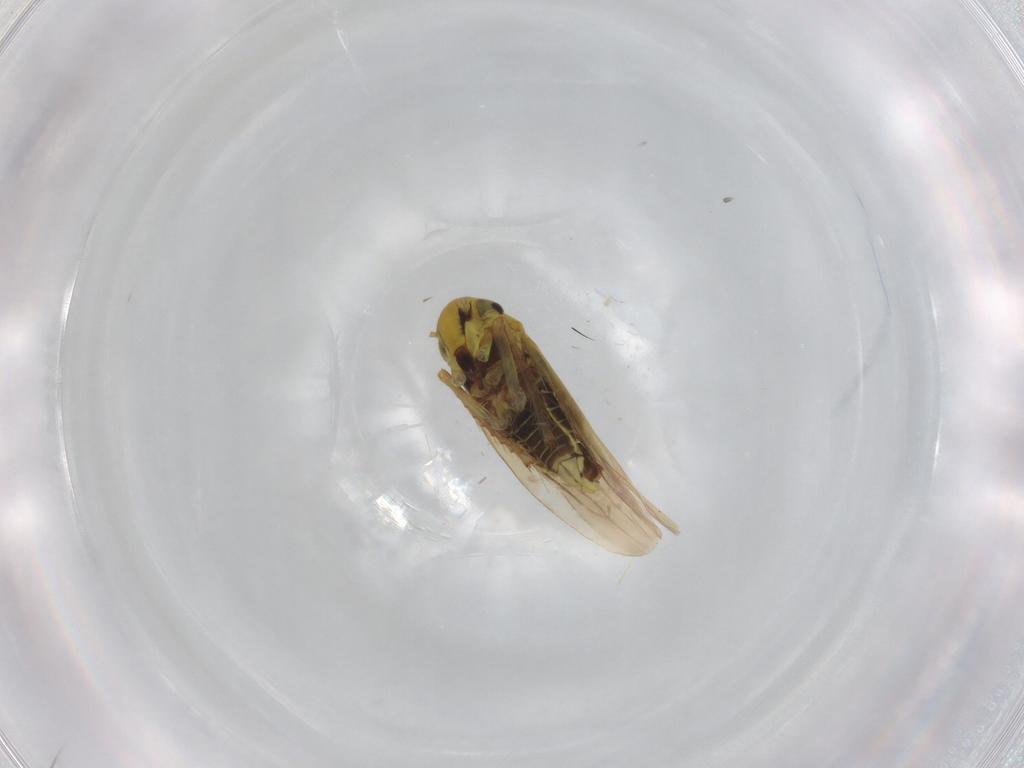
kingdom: Animalia
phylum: Arthropoda
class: Insecta
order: Hemiptera
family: Cicadellidae
